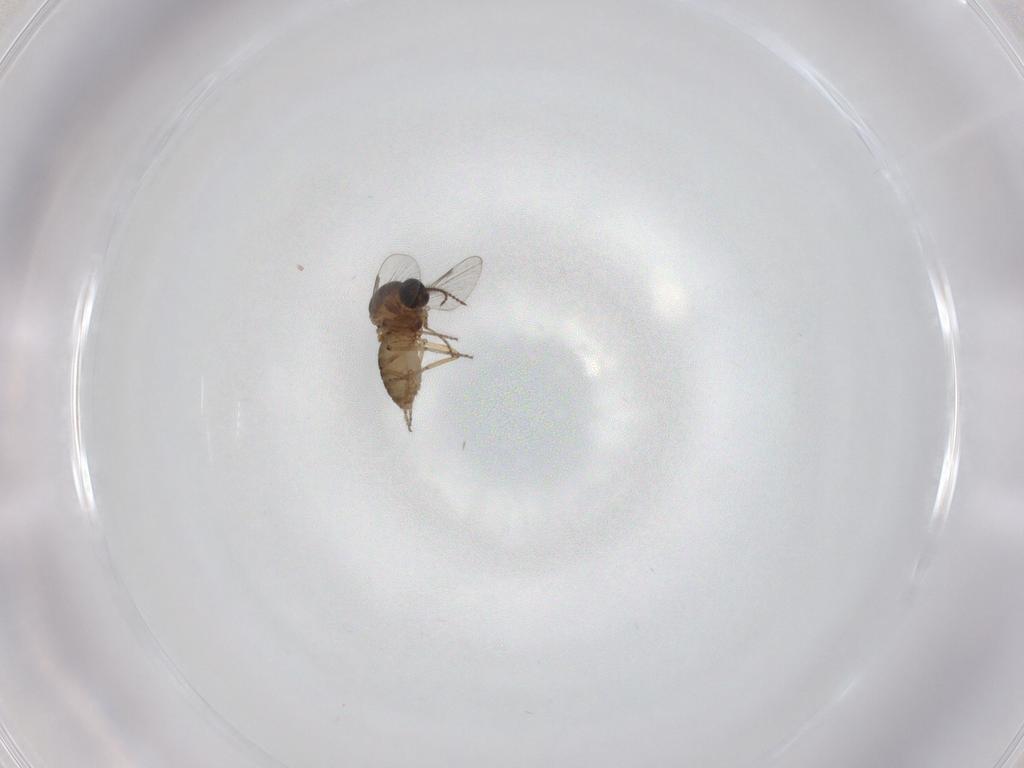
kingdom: Animalia
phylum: Arthropoda
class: Insecta
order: Diptera
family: Ceratopogonidae
